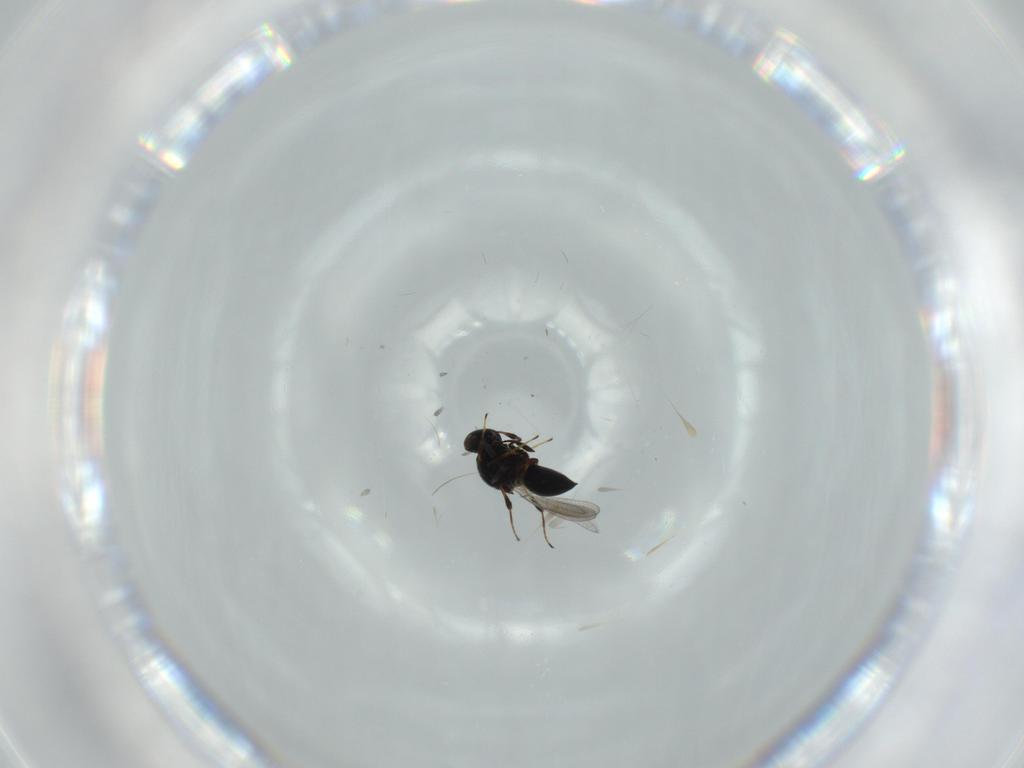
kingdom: Animalia
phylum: Arthropoda
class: Insecta
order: Hymenoptera
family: Platygastridae
